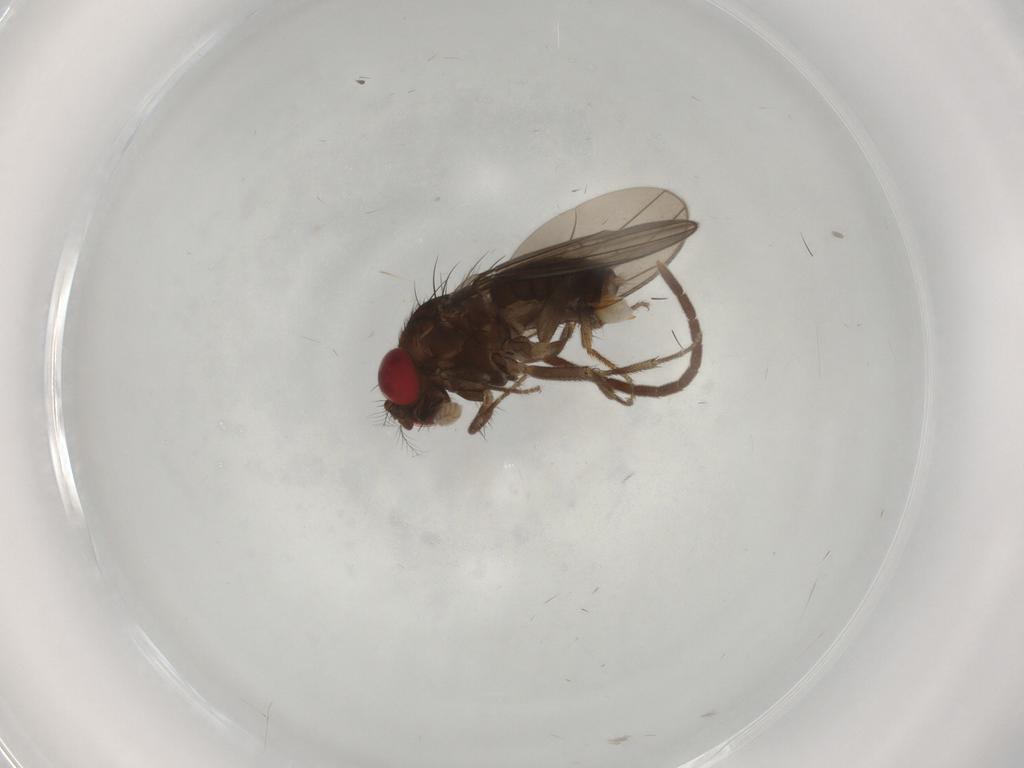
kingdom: Animalia
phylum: Arthropoda
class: Insecta
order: Diptera
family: Drosophilidae
